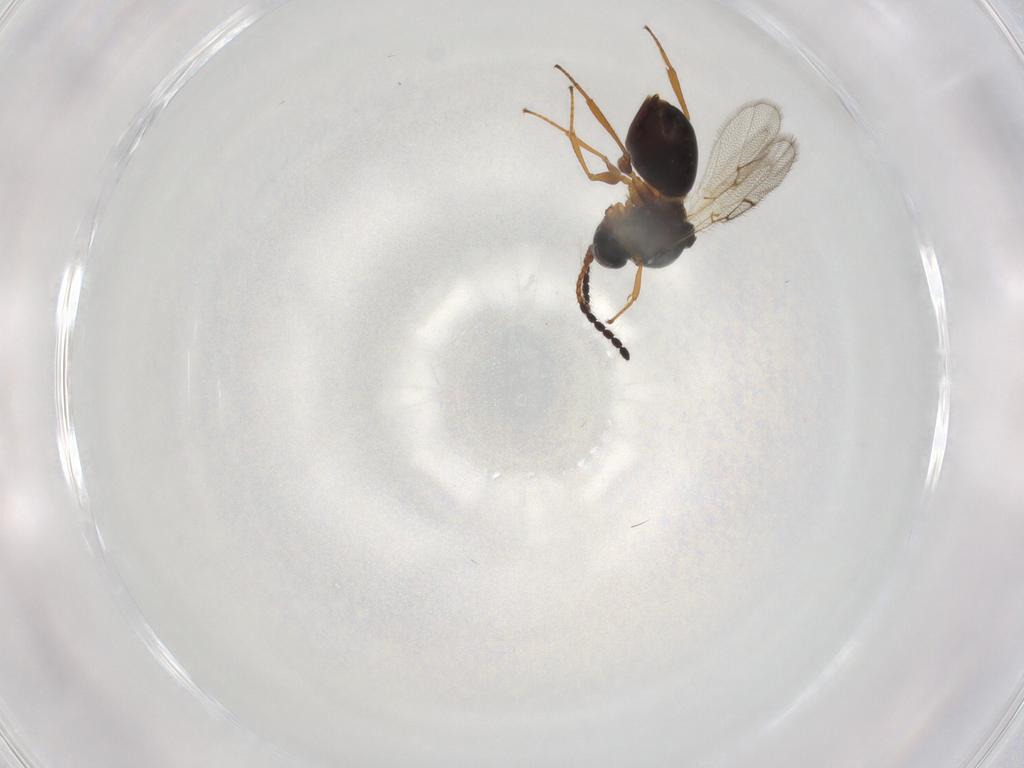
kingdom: Animalia
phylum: Arthropoda
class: Insecta
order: Hymenoptera
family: Figitidae
